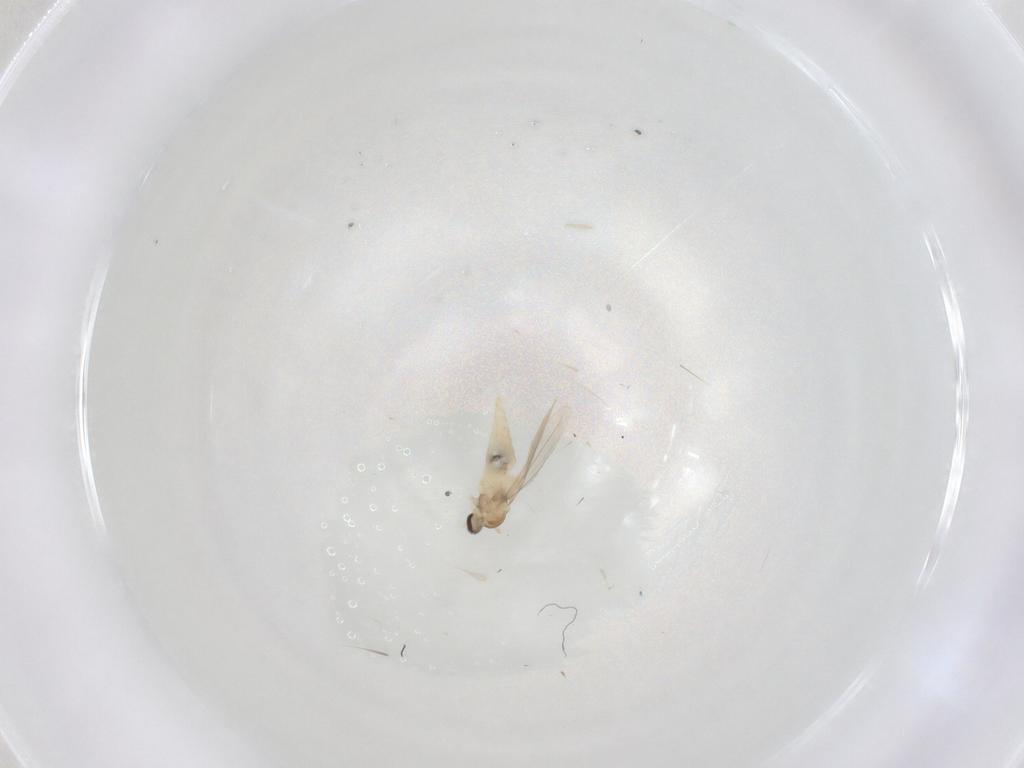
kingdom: Animalia
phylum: Arthropoda
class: Insecta
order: Diptera
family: Cecidomyiidae
